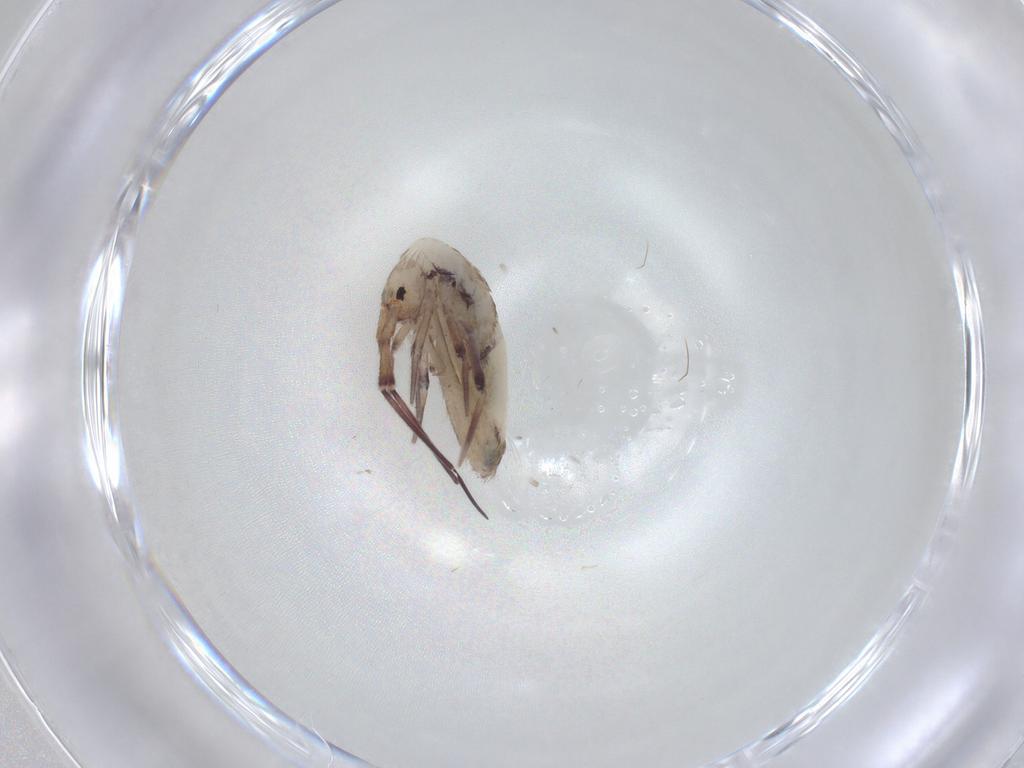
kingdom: Animalia
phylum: Arthropoda
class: Collembola
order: Entomobryomorpha
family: Entomobryidae
